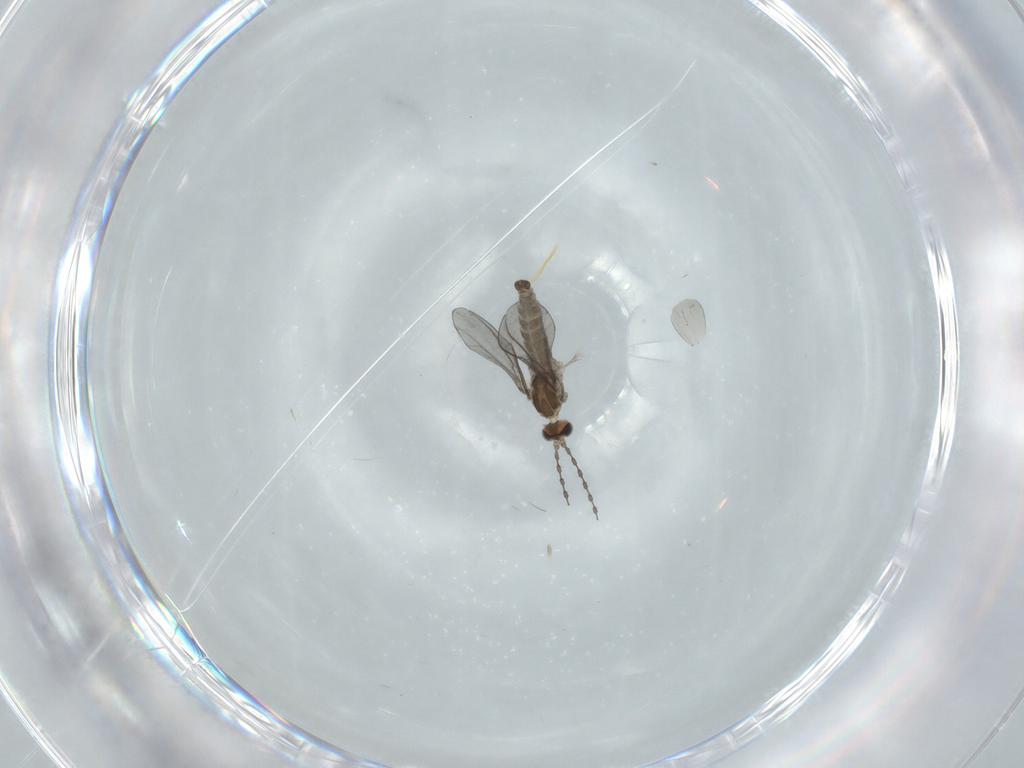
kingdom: Animalia
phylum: Arthropoda
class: Insecta
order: Diptera
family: Cecidomyiidae
